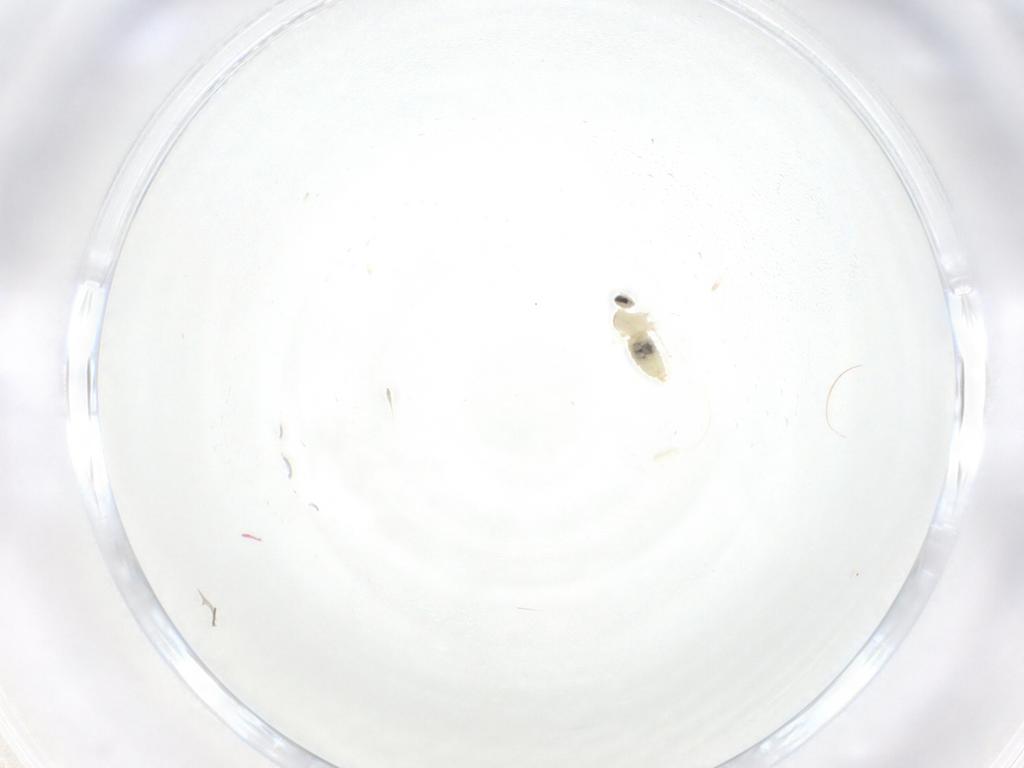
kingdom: Animalia
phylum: Arthropoda
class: Insecta
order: Diptera
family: Cecidomyiidae
